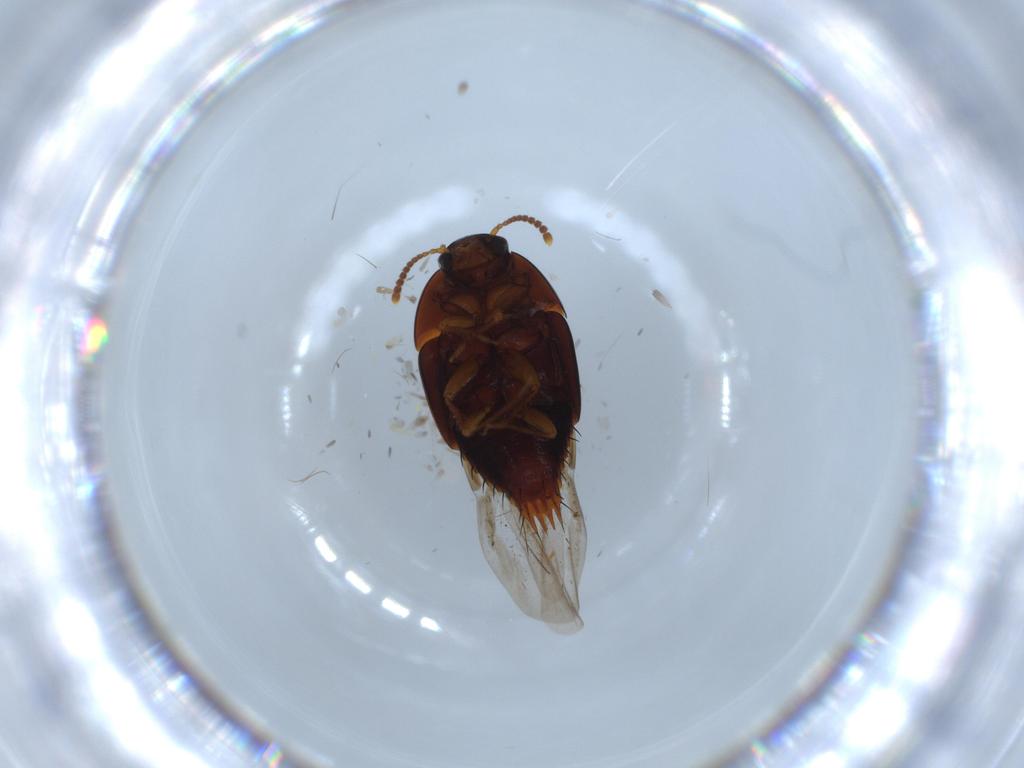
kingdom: Animalia
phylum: Arthropoda
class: Insecta
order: Coleoptera
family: Staphylinidae
